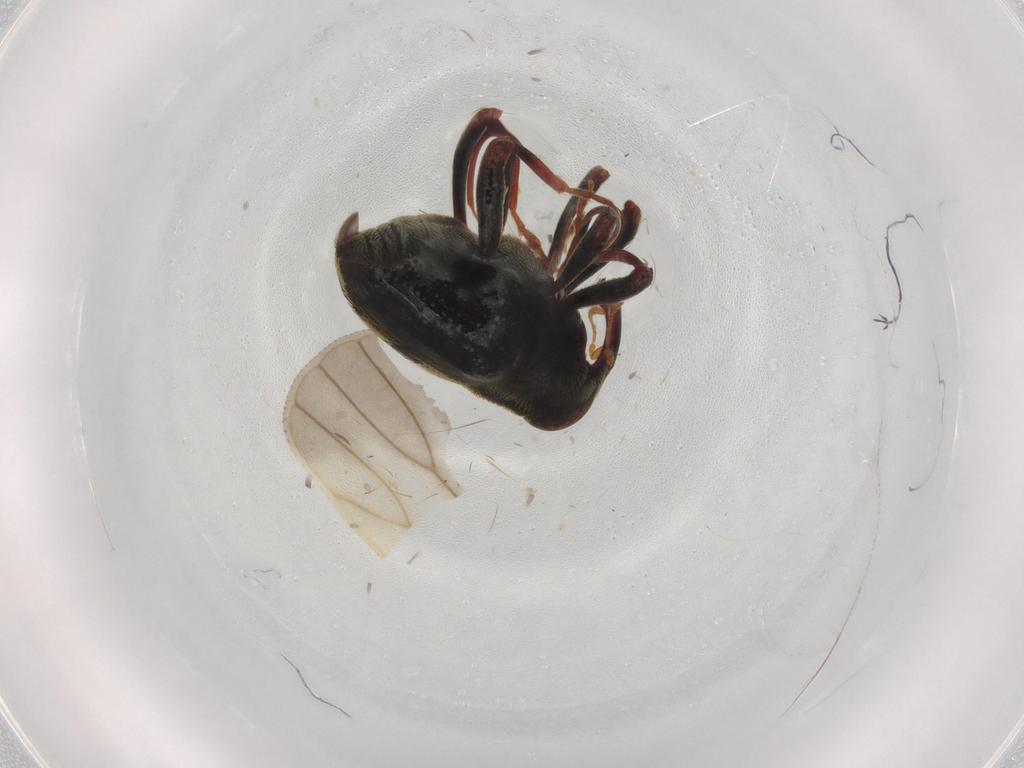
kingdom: Animalia
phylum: Arthropoda
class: Insecta
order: Coleoptera
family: Curculionidae
